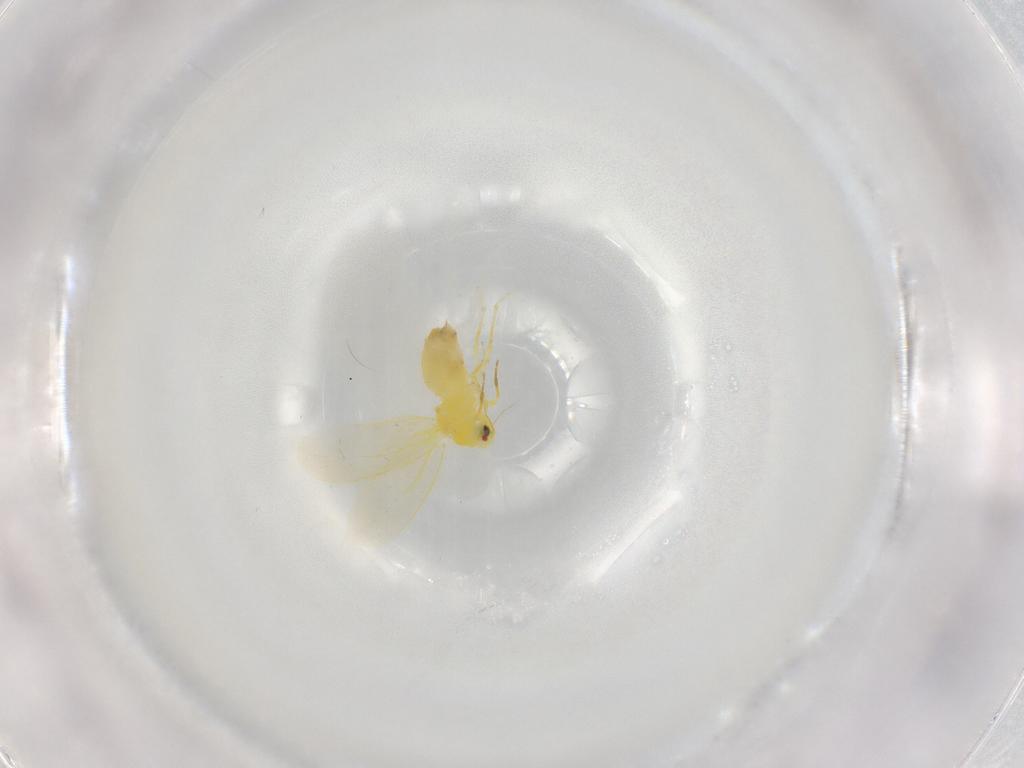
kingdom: Animalia
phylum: Arthropoda
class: Insecta
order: Hemiptera
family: Aleyrodidae
